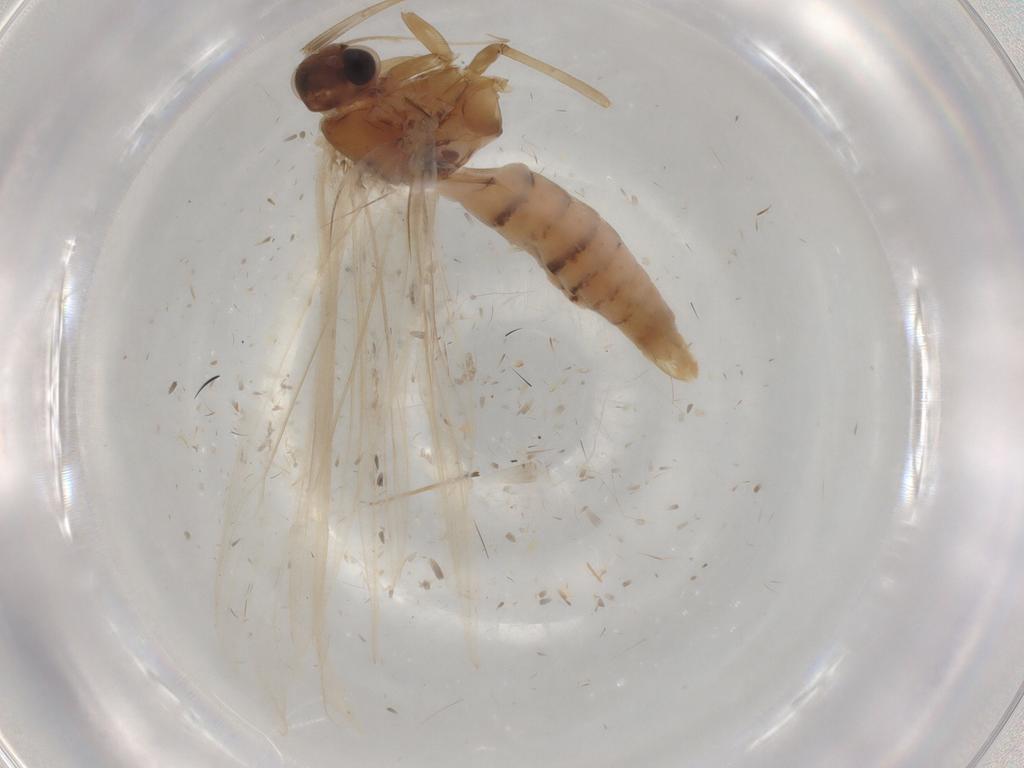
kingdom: Animalia
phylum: Arthropoda
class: Insecta
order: Lepidoptera
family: Gelechiidae
